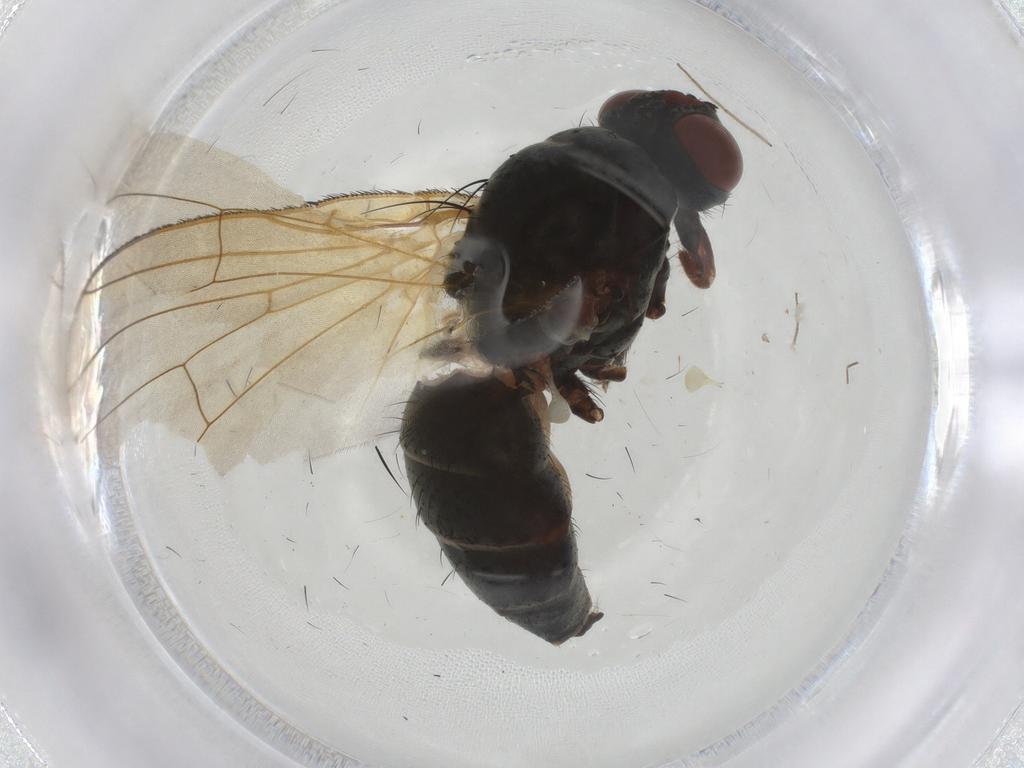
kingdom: Animalia
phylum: Arthropoda
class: Insecta
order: Diptera
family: Anthomyiidae
